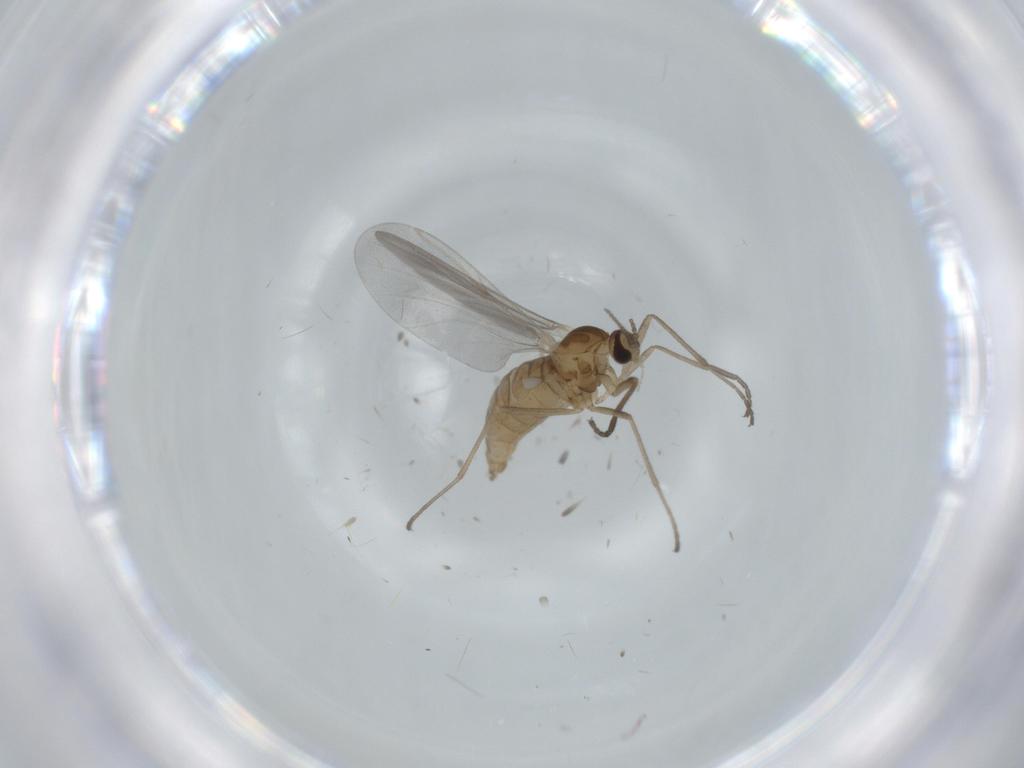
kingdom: Animalia
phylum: Arthropoda
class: Insecta
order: Diptera
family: Cecidomyiidae
